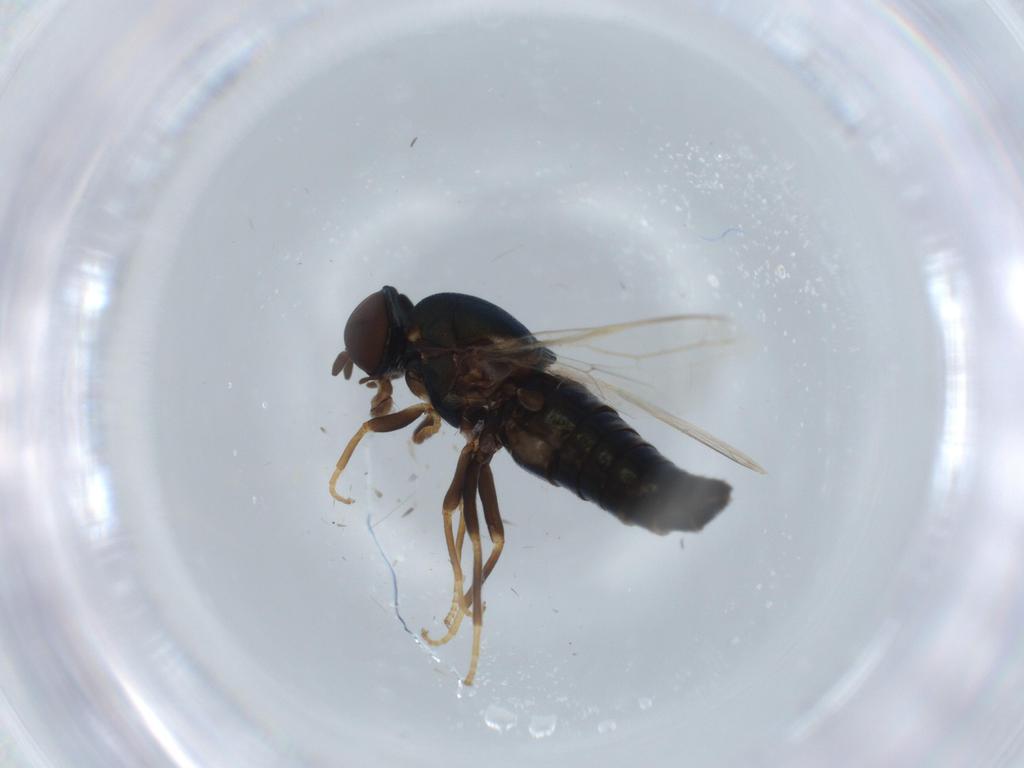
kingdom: Animalia
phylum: Arthropoda
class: Insecta
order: Diptera
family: Scenopinidae
